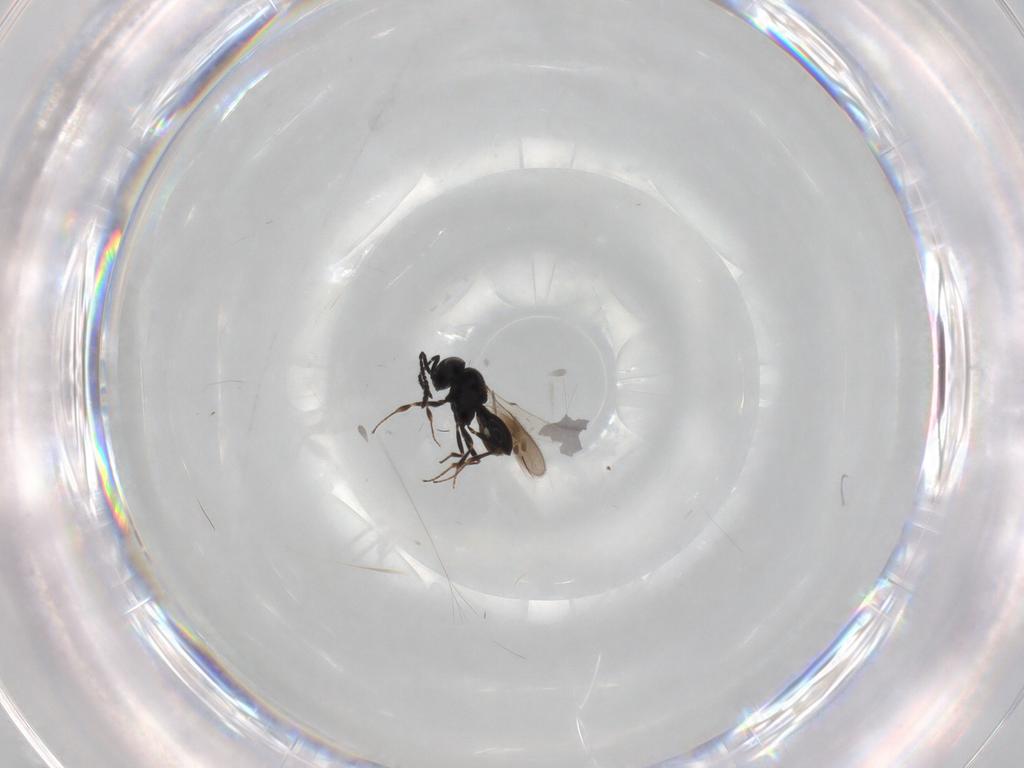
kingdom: Animalia
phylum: Arthropoda
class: Insecta
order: Hymenoptera
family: Scelionidae
